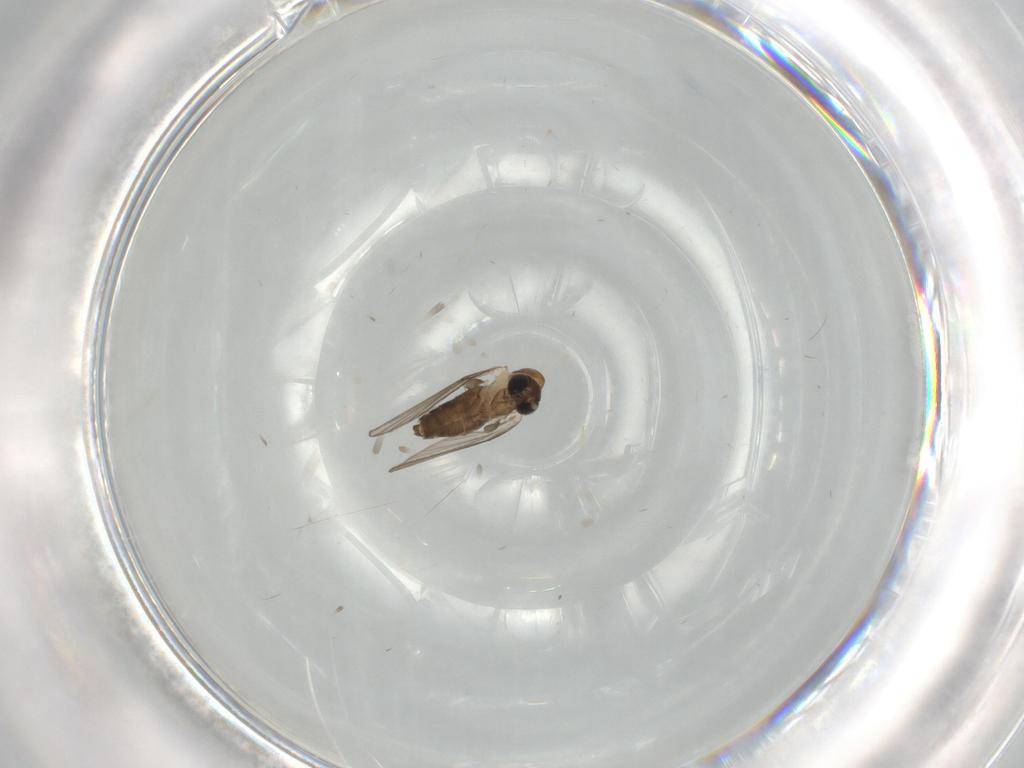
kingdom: Animalia
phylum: Arthropoda
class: Insecta
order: Diptera
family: Psychodidae
